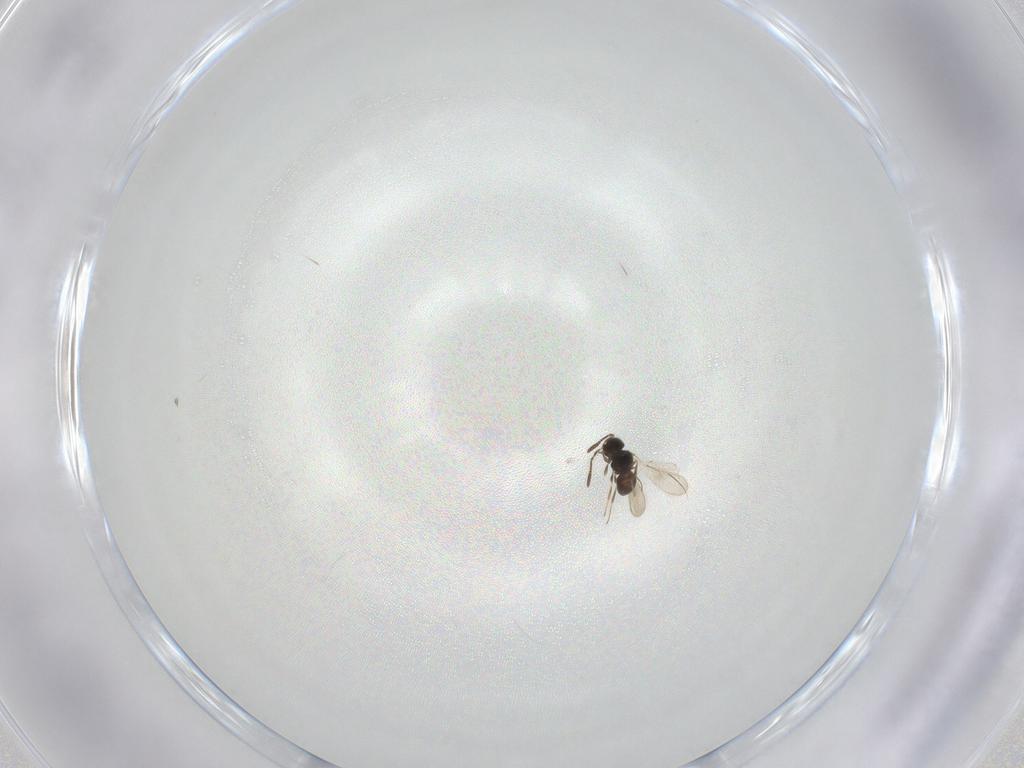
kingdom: Animalia
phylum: Arthropoda
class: Insecta
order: Hymenoptera
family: Scelionidae
